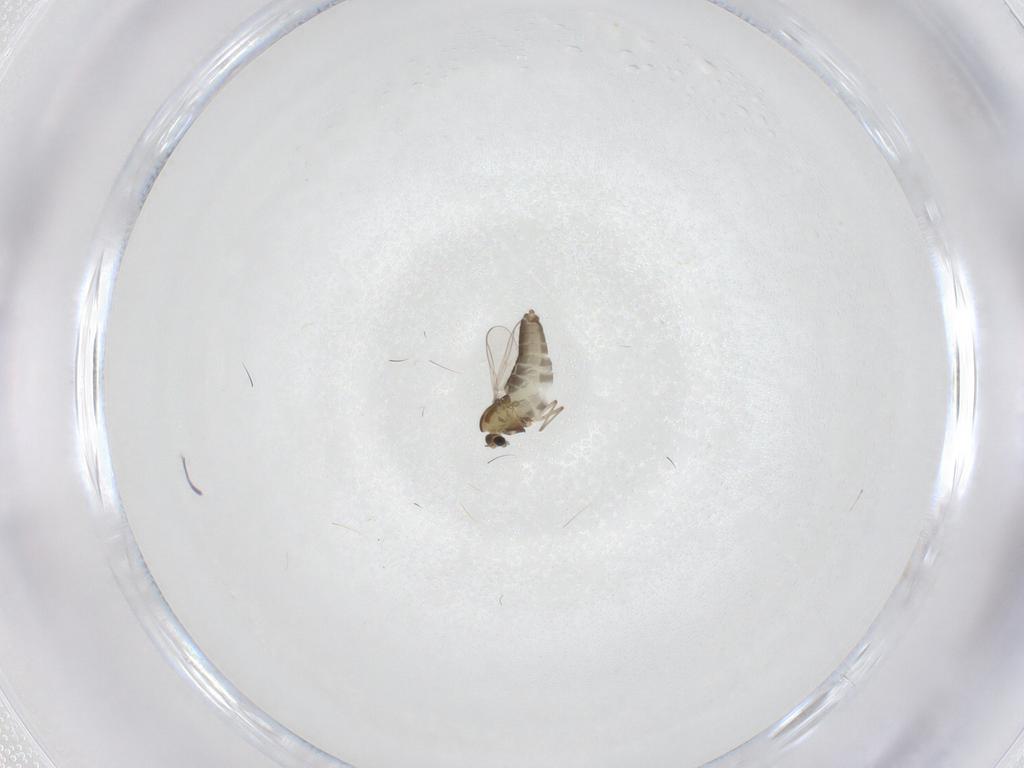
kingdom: Animalia
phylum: Arthropoda
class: Insecta
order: Diptera
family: Chironomidae
